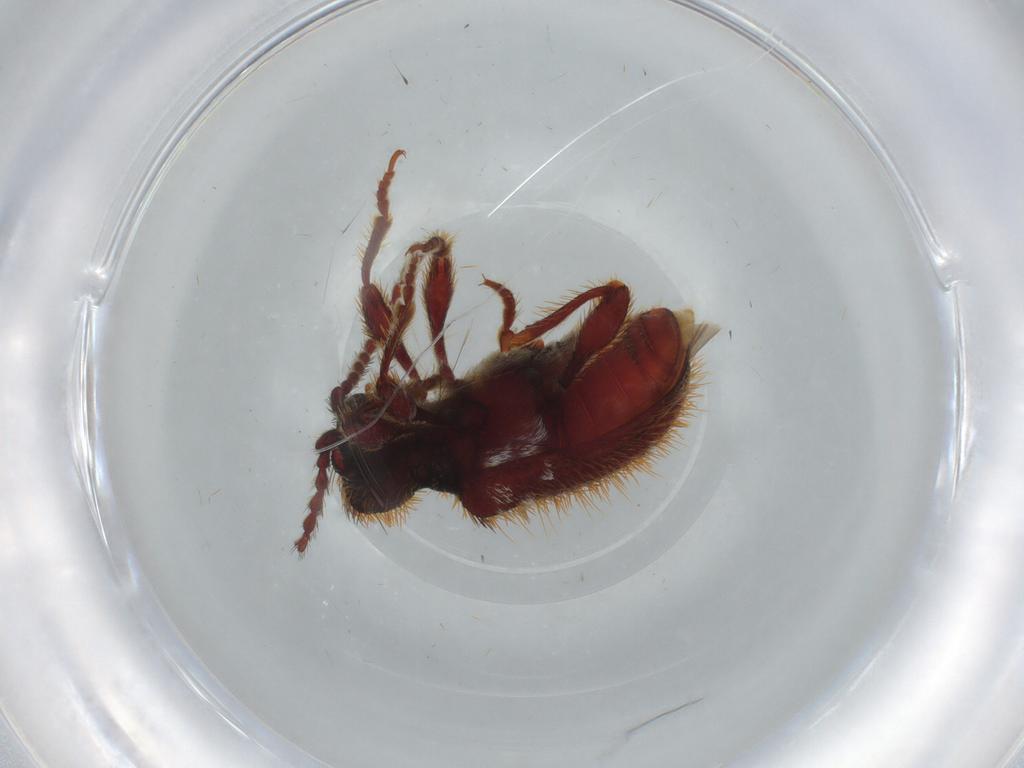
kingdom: Animalia
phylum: Arthropoda
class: Insecta
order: Coleoptera
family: Ptinidae
